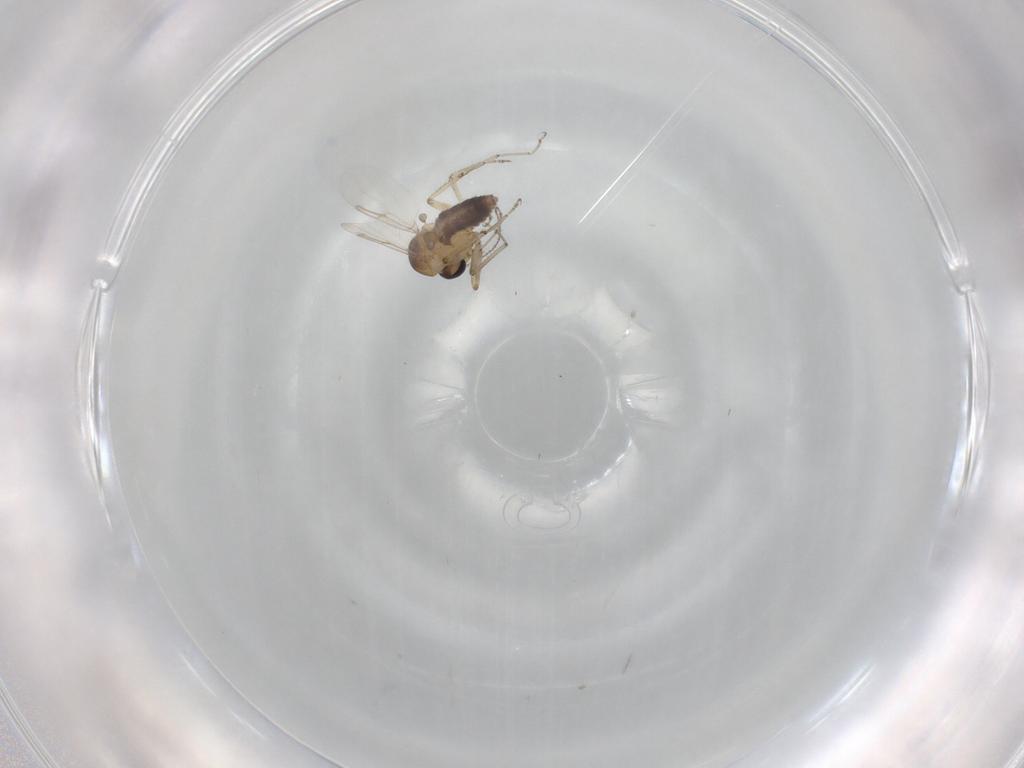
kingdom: Animalia
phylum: Arthropoda
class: Insecta
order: Diptera
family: Ceratopogonidae
